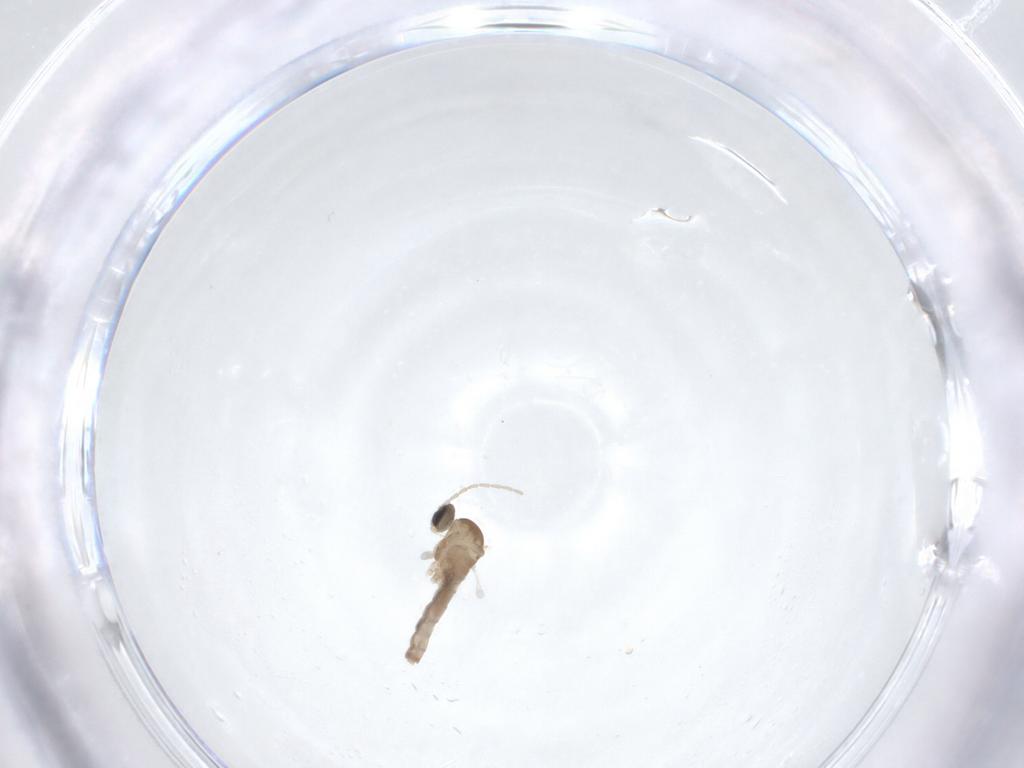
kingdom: Animalia
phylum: Arthropoda
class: Insecta
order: Diptera
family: Cecidomyiidae
